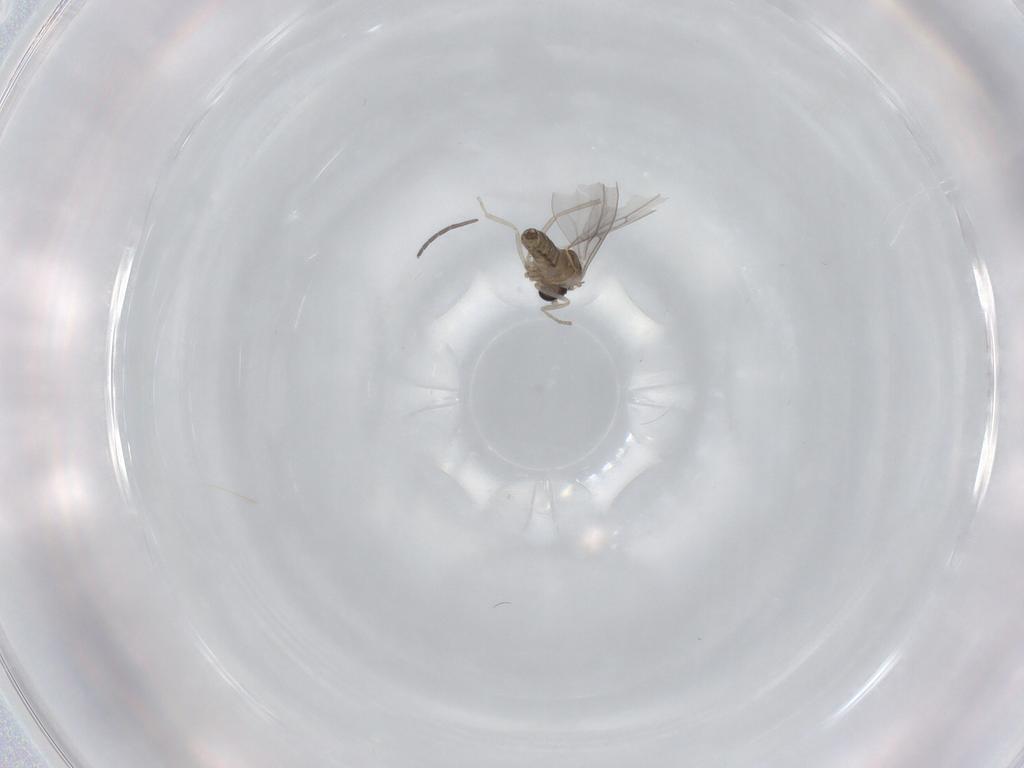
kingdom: Animalia
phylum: Arthropoda
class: Insecta
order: Diptera
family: Cecidomyiidae
